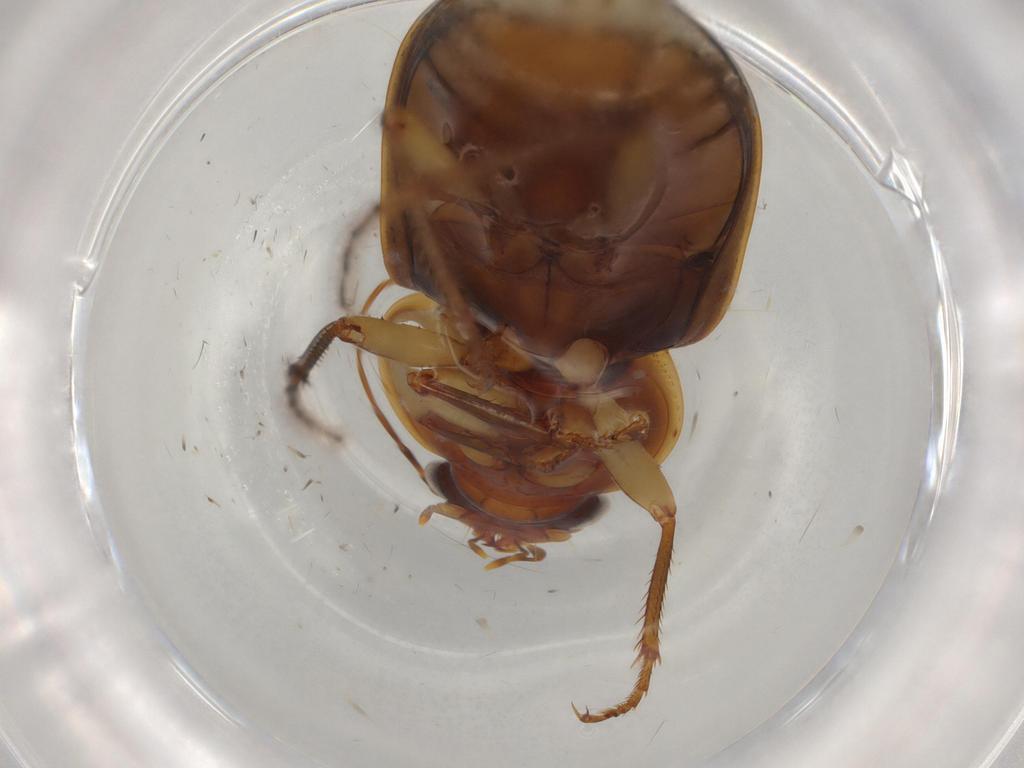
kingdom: Animalia
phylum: Arthropoda
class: Insecta
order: Coleoptera
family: Carabidae
